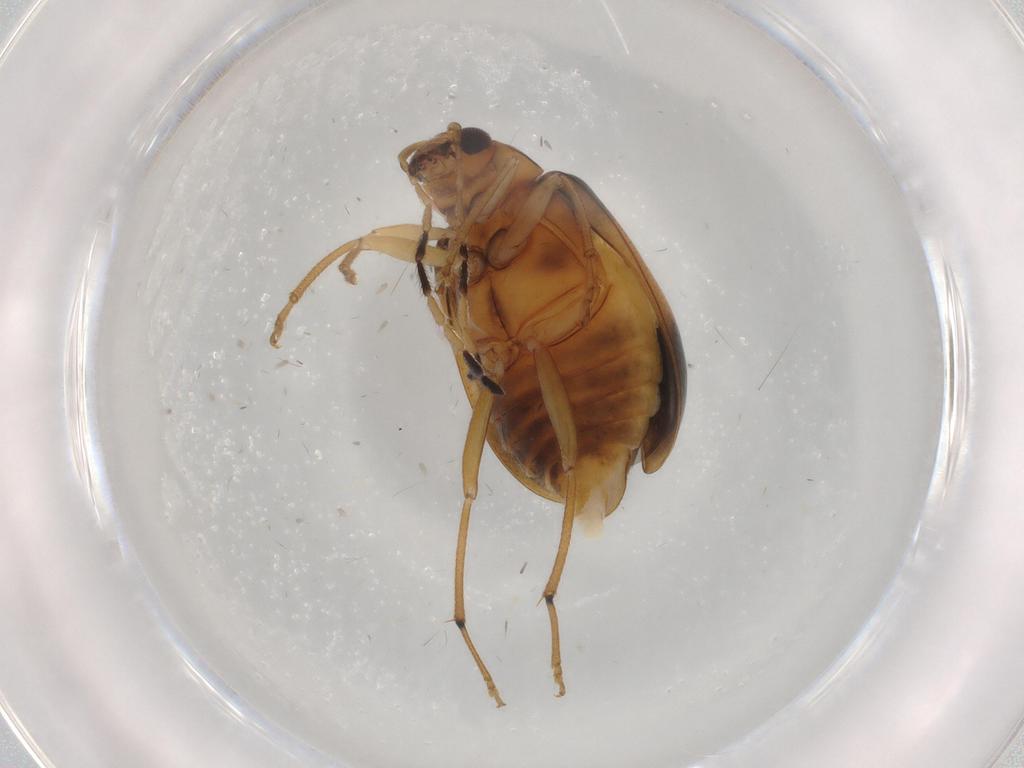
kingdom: Animalia
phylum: Arthropoda
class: Insecta
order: Coleoptera
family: Chrysomelidae
